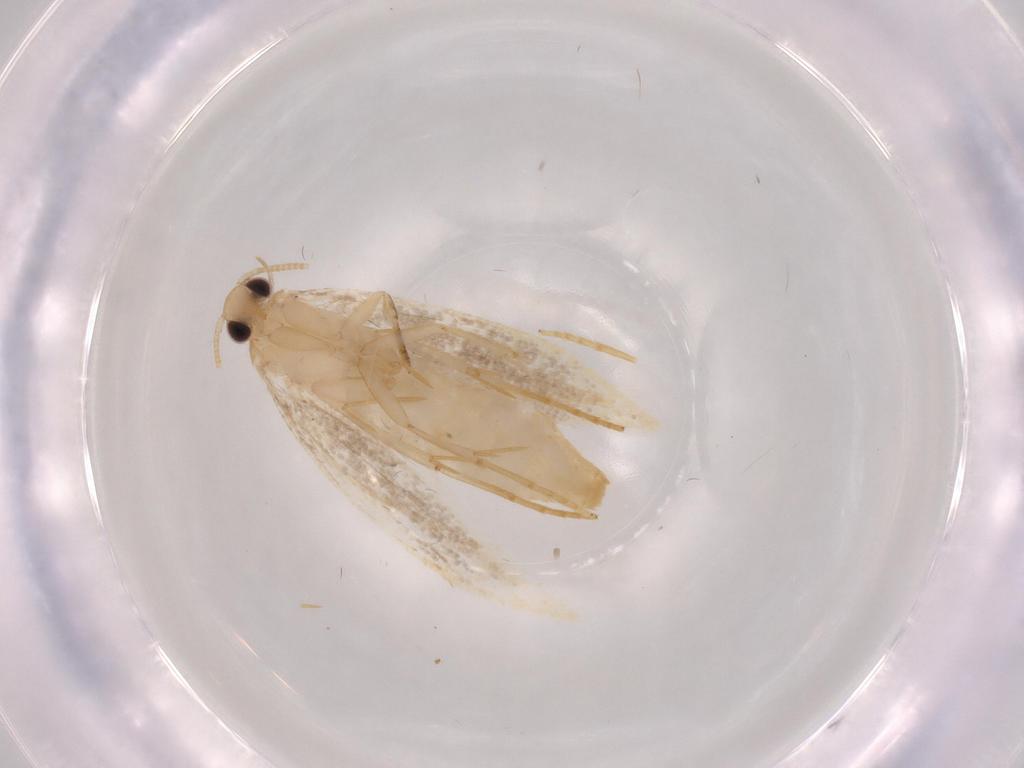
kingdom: Animalia
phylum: Arthropoda
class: Insecta
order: Lepidoptera
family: Tineidae
